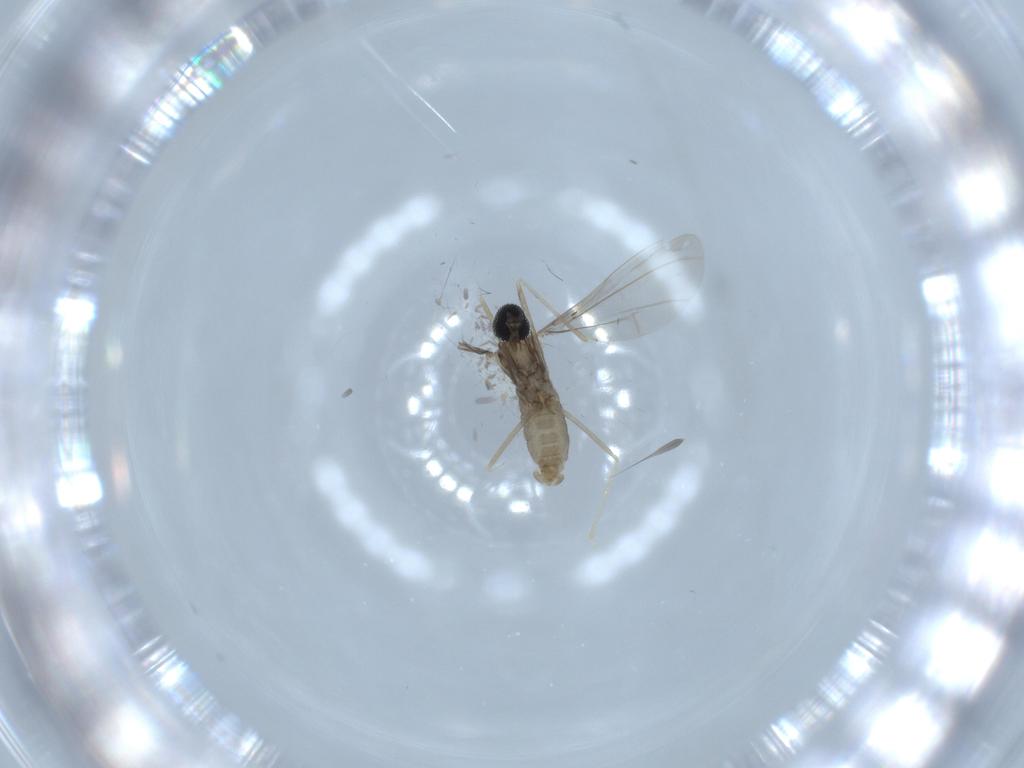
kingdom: Animalia
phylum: Arthropoda
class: Insecta
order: Diptera
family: Cecidomyiidae
